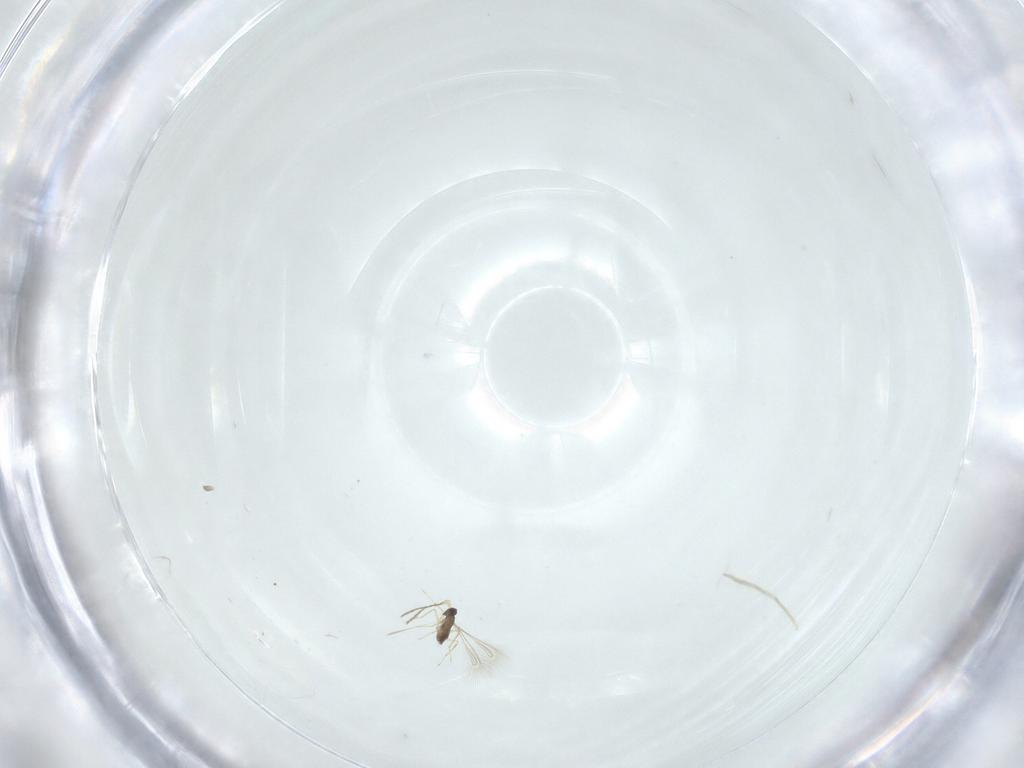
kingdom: Animalia
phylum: Arthropoda
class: Insecta
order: Hymenoptera
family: Mymaridae
